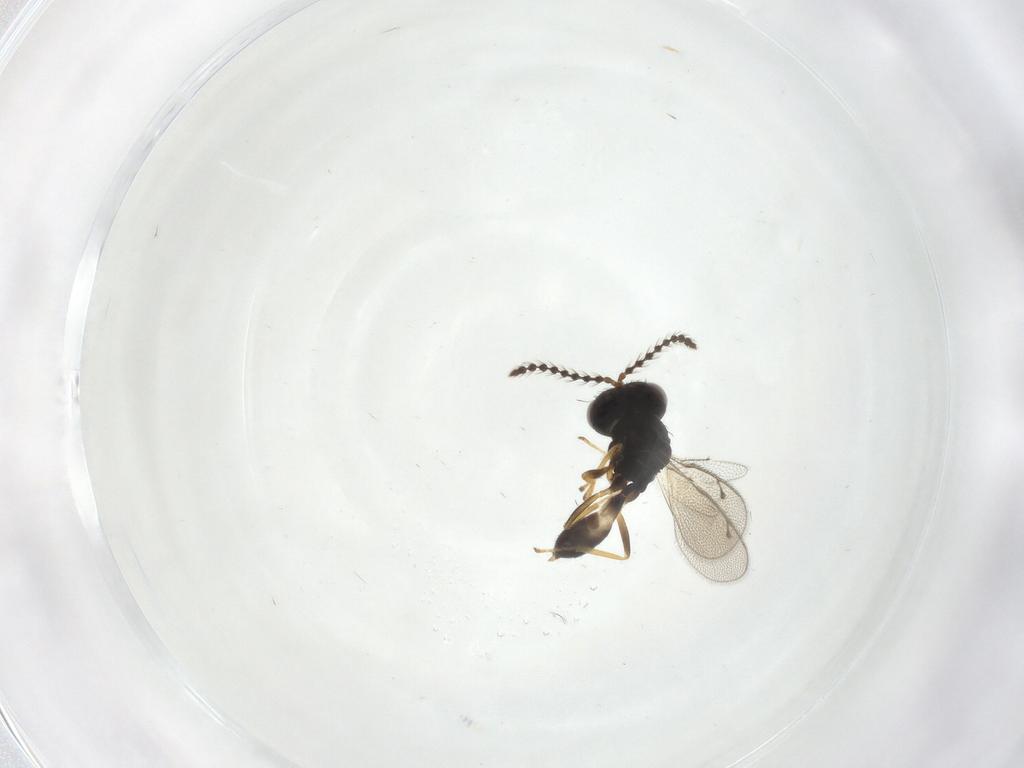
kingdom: Animalia
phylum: Arthropoda
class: Insecta
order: Hymenoptera
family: Pteromalidae
